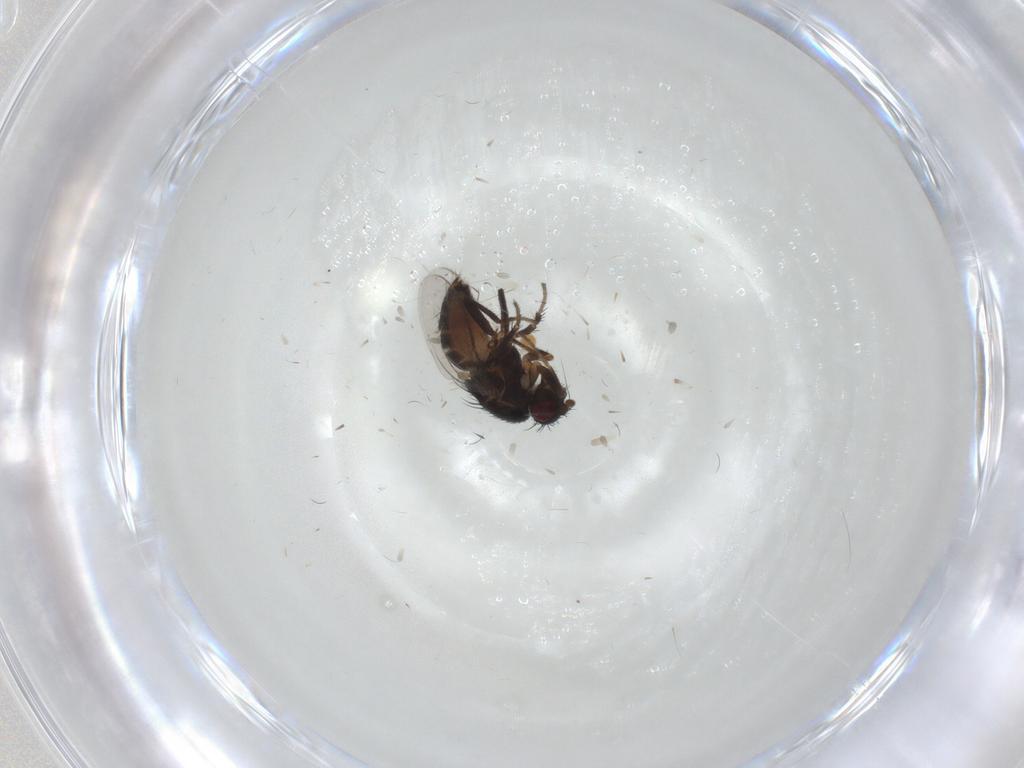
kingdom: Animalia
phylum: Arthropoda
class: Insecta
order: Diptera
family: Sphaeroceridae
